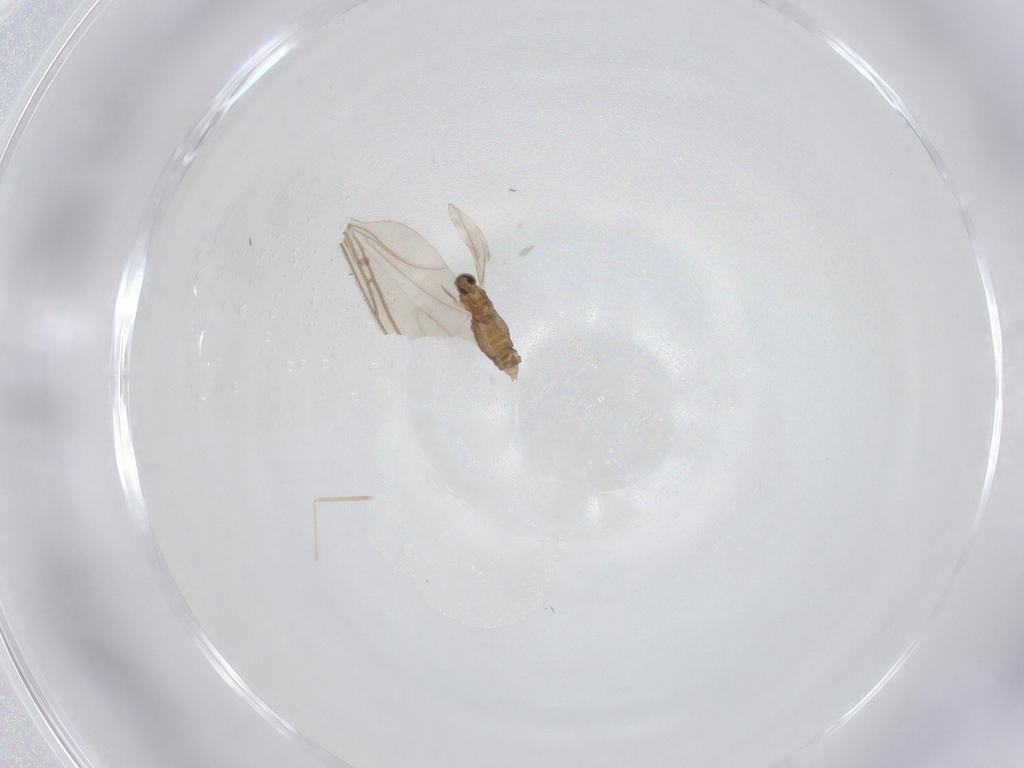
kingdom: Animalia
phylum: Arthropoda
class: Insecta
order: Diptera
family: Cecidomyiidae
